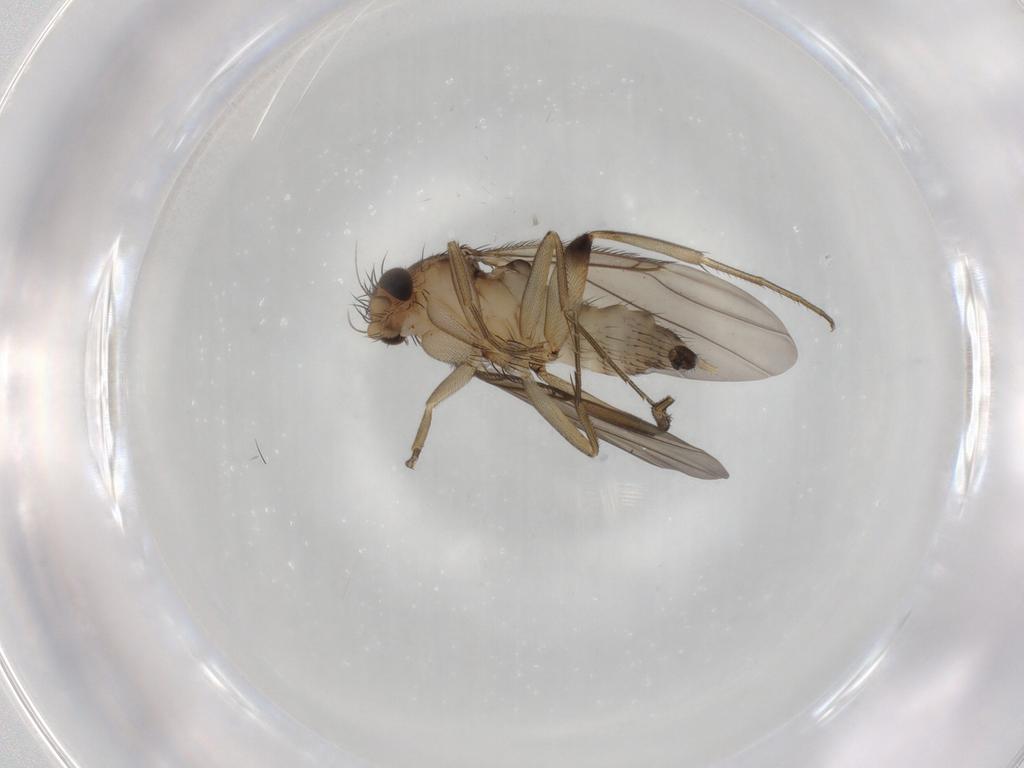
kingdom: Animalia
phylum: Arthropoda
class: Insecta
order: Diptera
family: Phoridae
